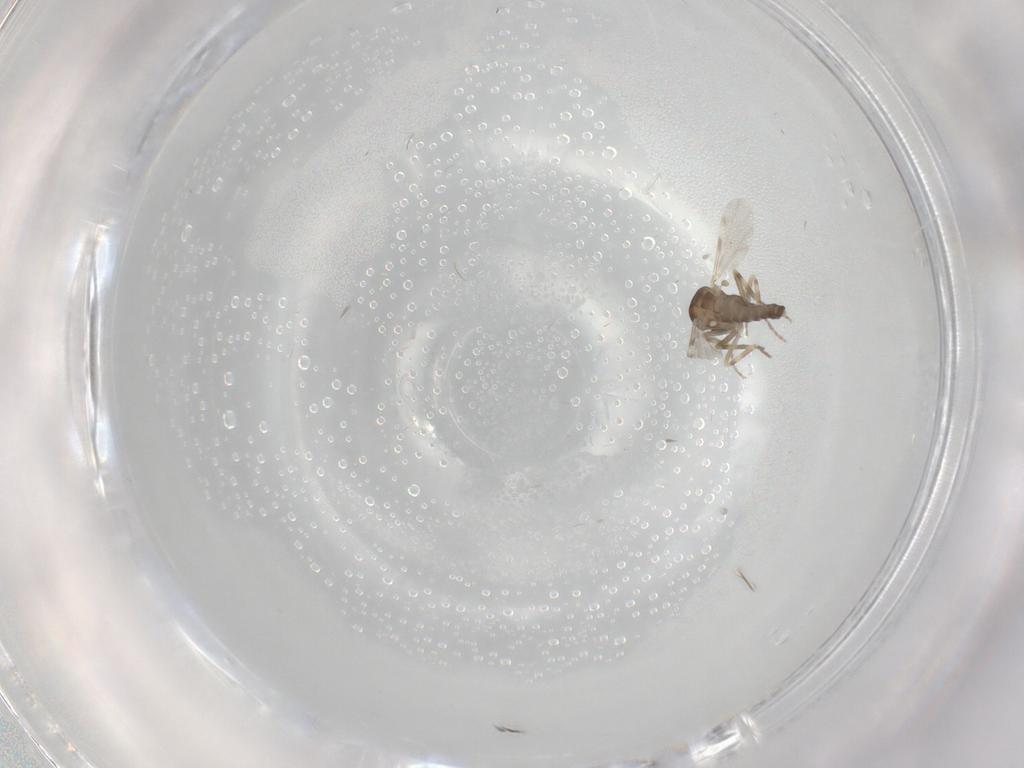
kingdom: Animalia
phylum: Arthropoda
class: Insecta
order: Diptera
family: Ceratopogonidae
